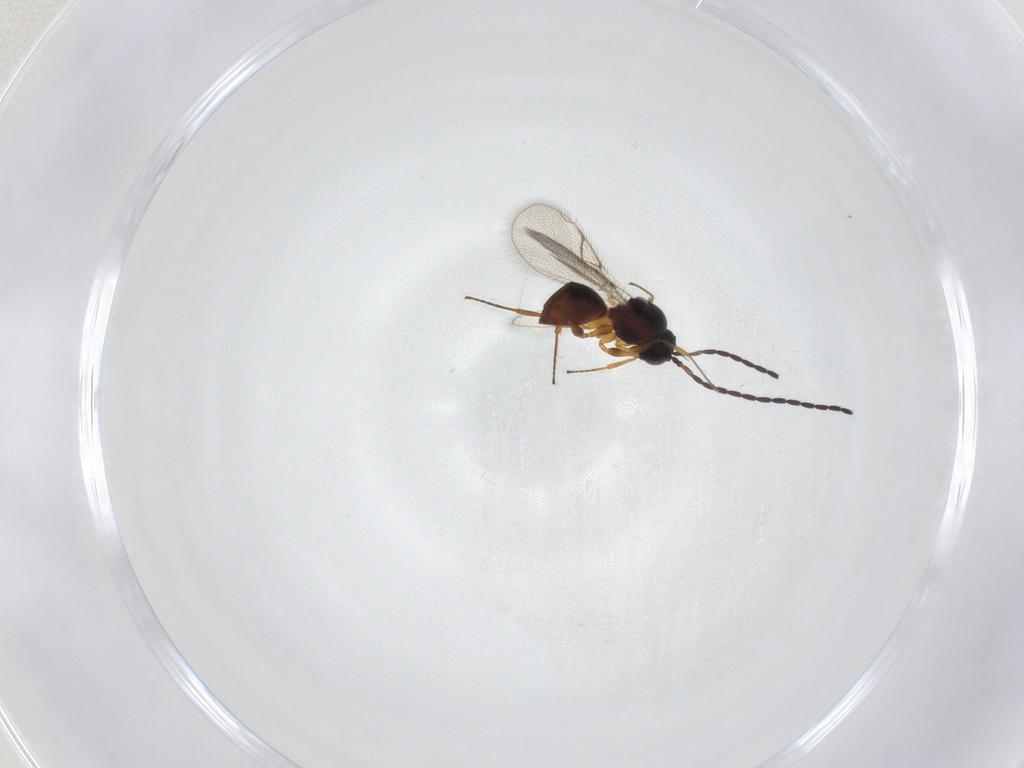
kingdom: Animalia
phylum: Arthropoda
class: Insecta
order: Hymenoptera
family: Figitidae
